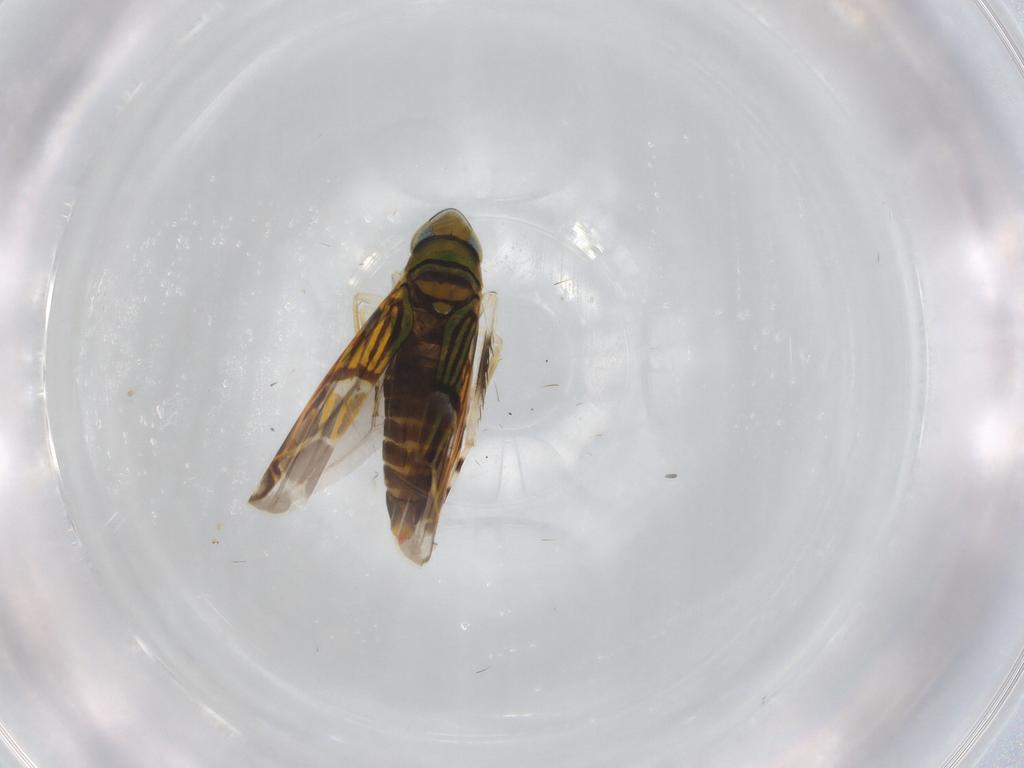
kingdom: Animalia
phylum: Arthropoda
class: Insecta
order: Hemiptera
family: Cicadellidae
